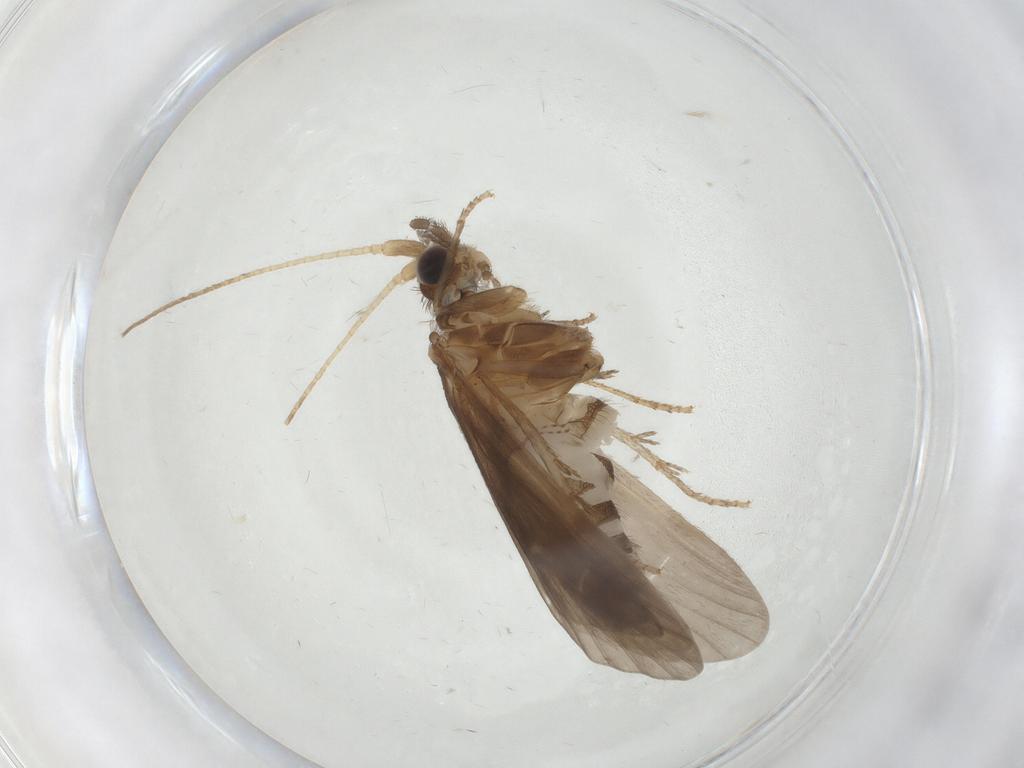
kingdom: Animalia
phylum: Arthropoda
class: Insecta
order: Trichoptera
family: Helicopsychidae
